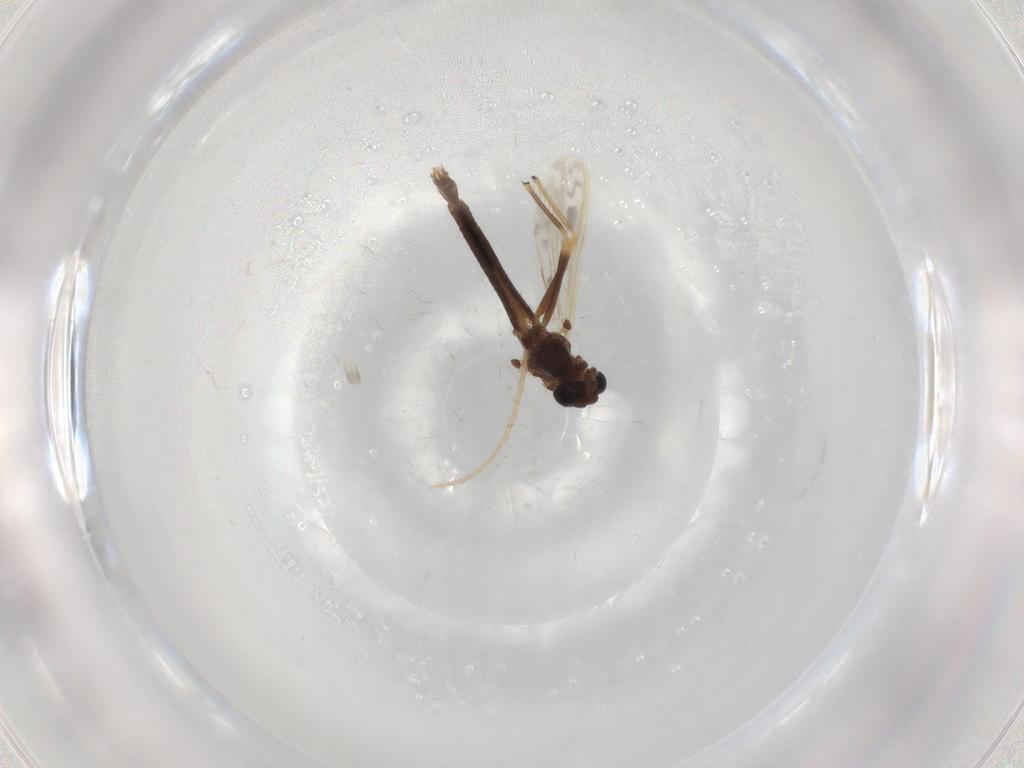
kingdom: Animalia
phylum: Arthropoda
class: Insecta
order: Diptera
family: Chironomidae
